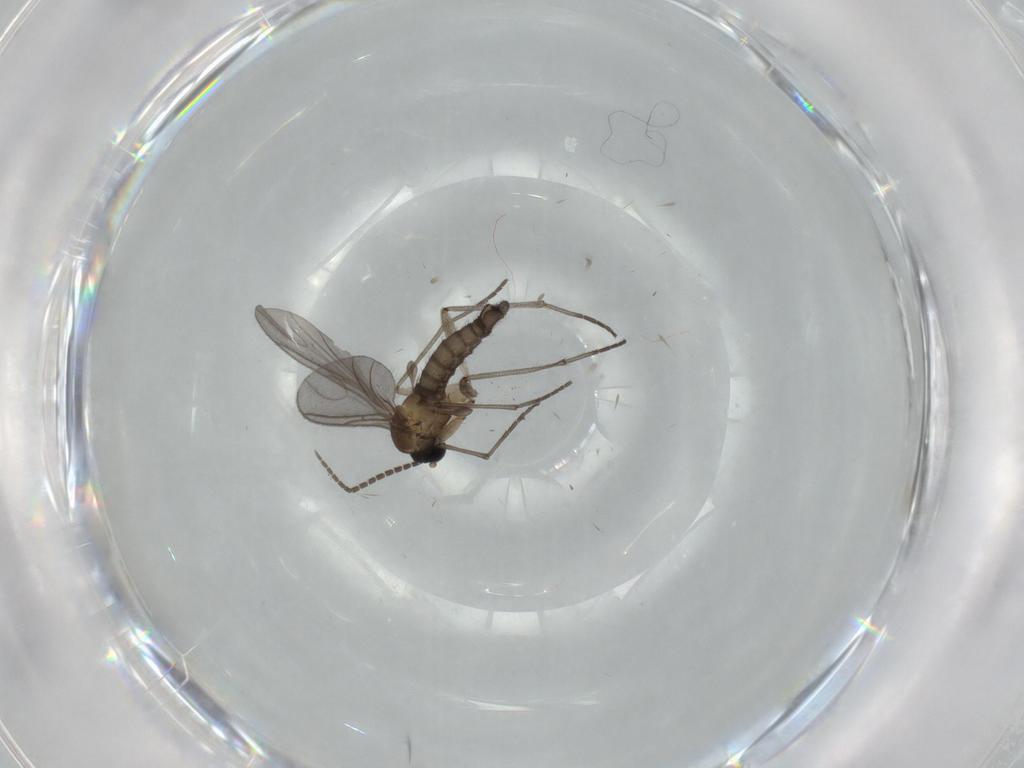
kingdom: Animalia
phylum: Arthropoda
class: Insecta
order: Diptera
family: Sciaridae
